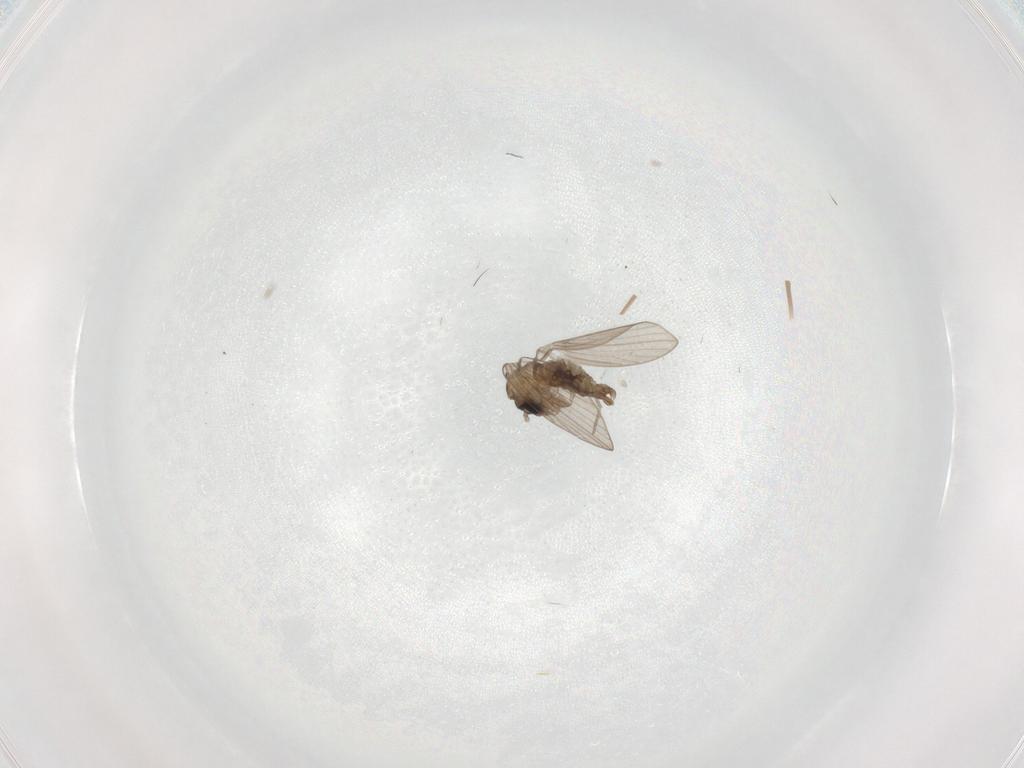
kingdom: Animalia
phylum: Arthropoda
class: Insecta
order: Diptera
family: Psychodidae
